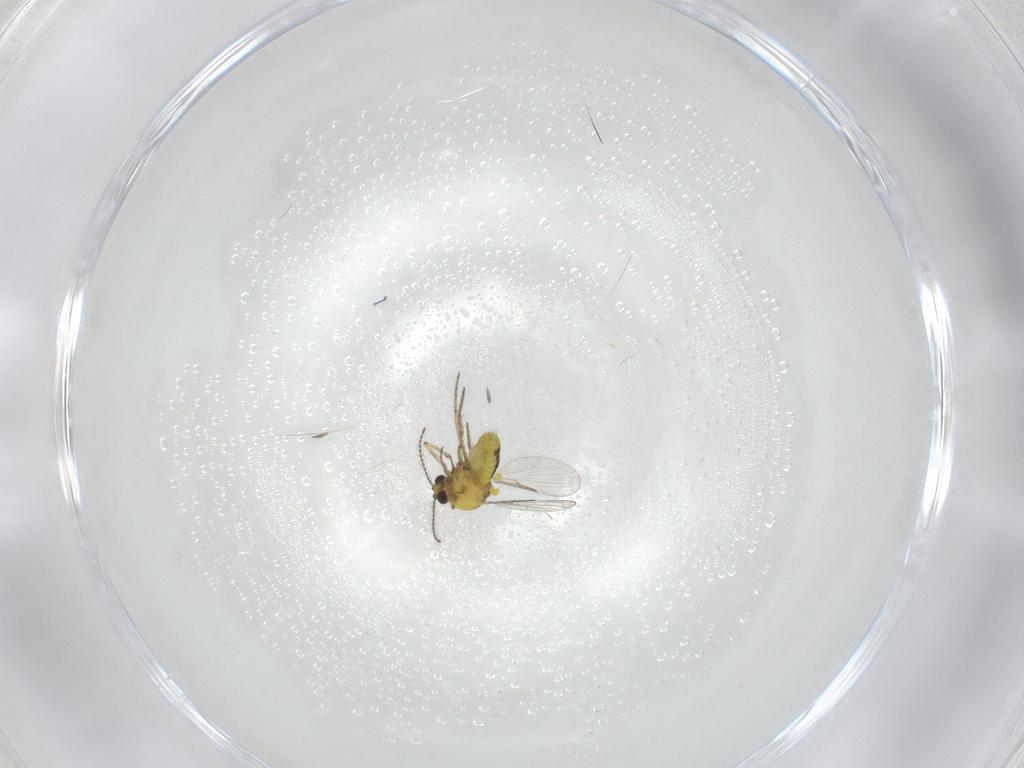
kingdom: Animalia
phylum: Arthropoda
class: Insecta
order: Diptera
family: Ceratopogonidae
